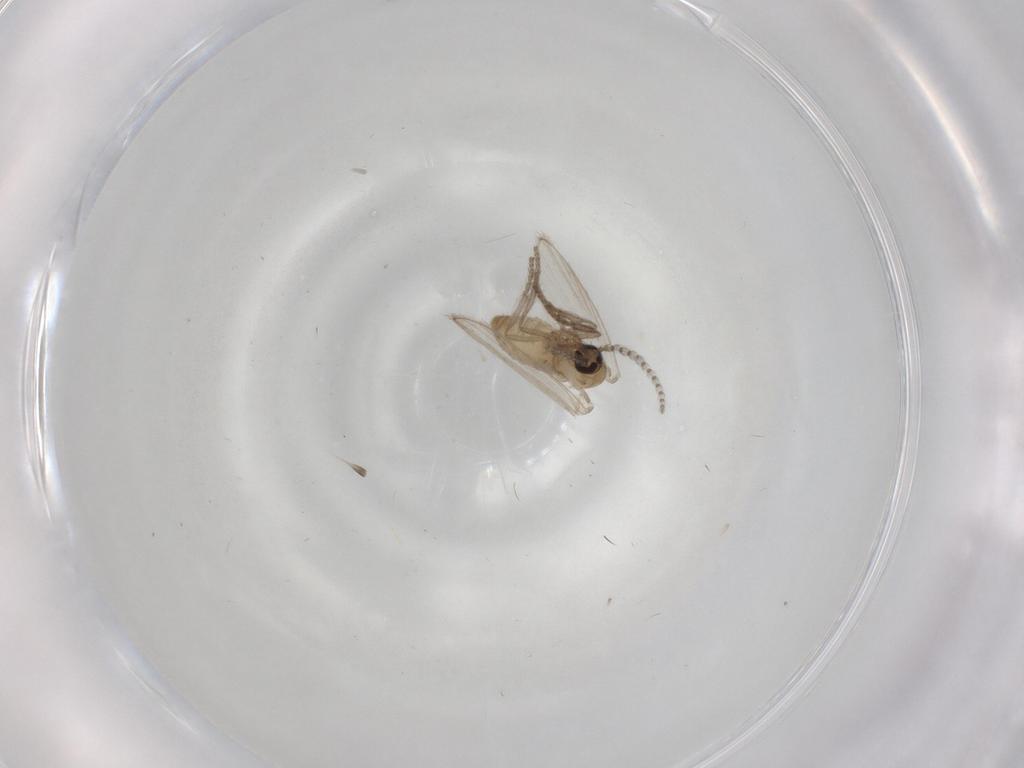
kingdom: Animalia
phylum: Arthropoda
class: Insecta
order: Diptera
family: Psychodidae
